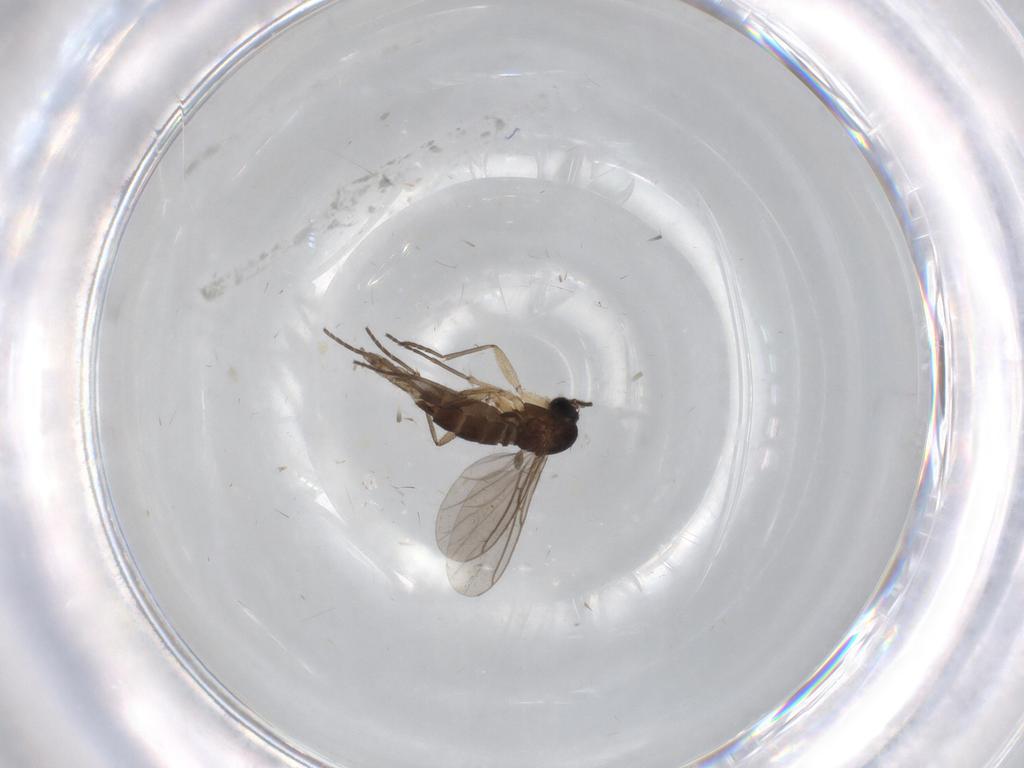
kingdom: Animalia
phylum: Arthropoda
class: Insecta
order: Diptera
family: Sciaridae
